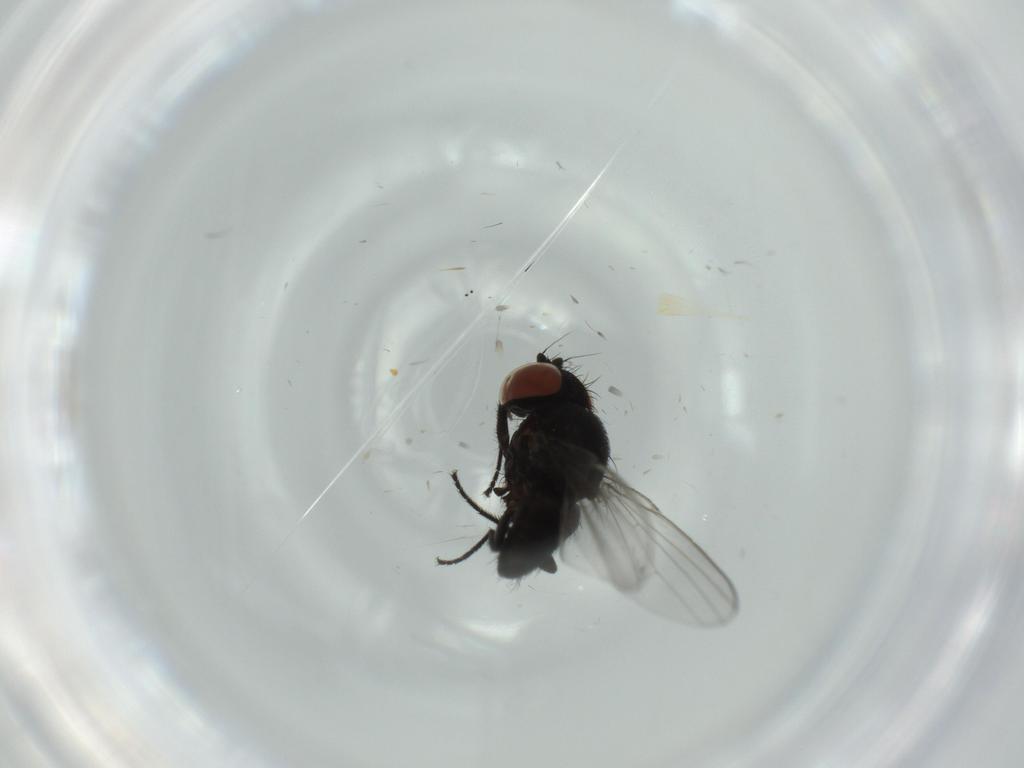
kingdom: Animalia
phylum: Arthropoda
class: Insecta
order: Diptera
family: Milichiidae
